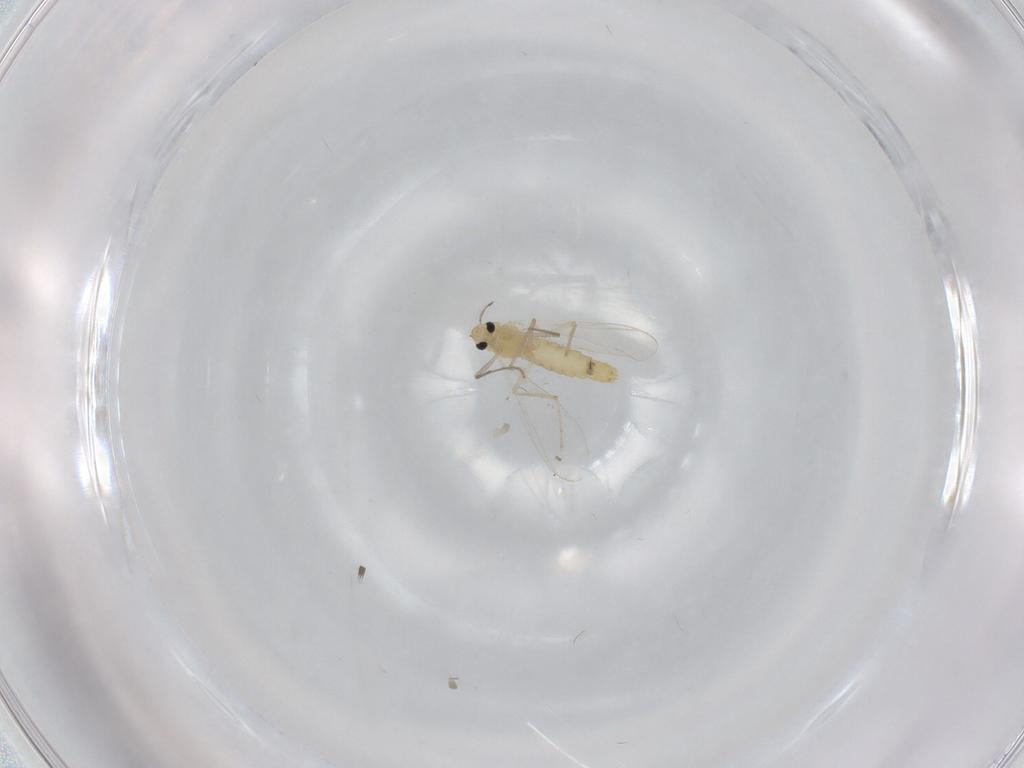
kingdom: Animalia
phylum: Arthropoda
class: Insecta
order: Diptera
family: Chironomidae
